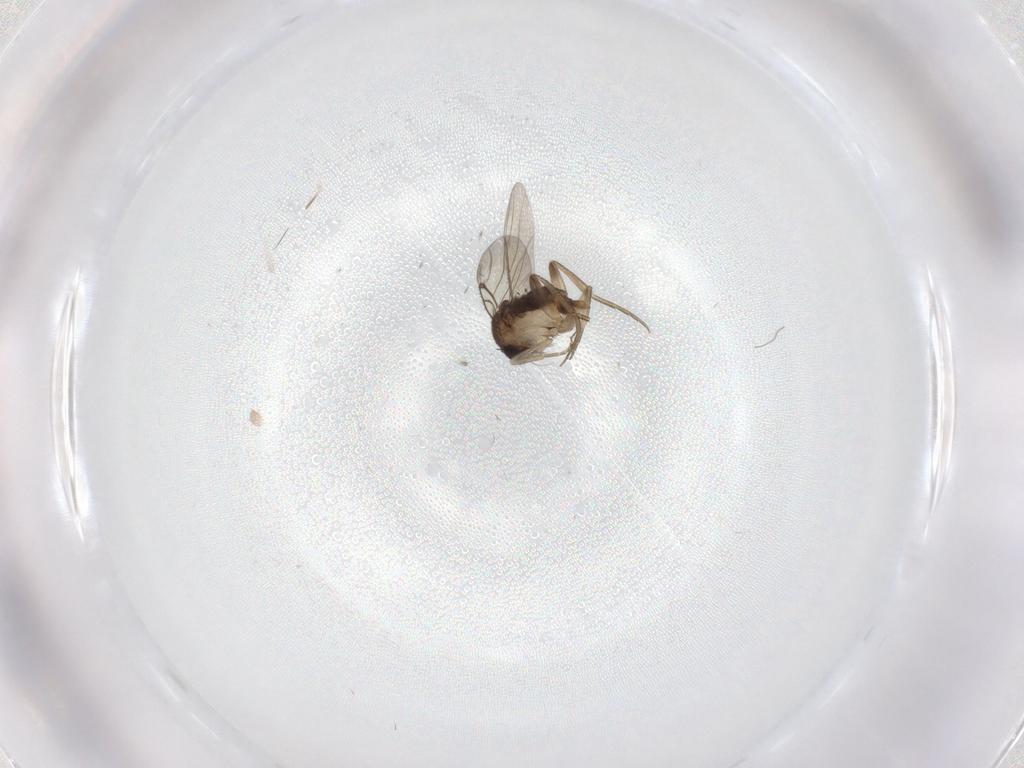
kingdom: Animalia
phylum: Arthropoda
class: Insecta
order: Diptera
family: Phoridae
